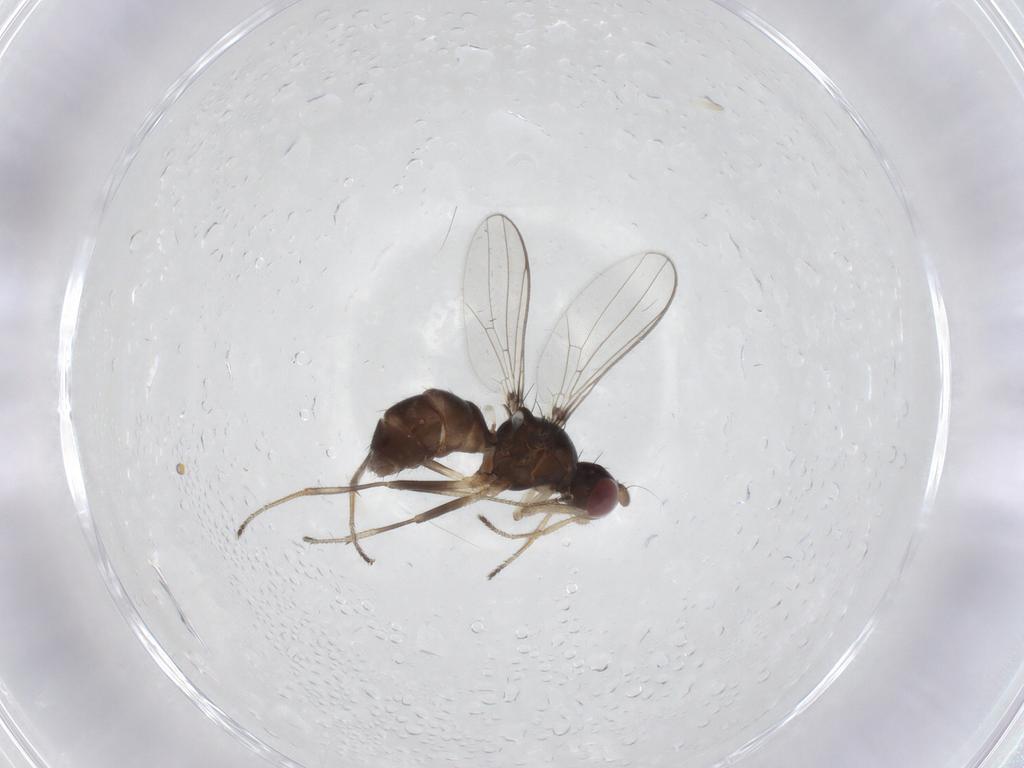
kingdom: Animalia
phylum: Arthropoda
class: Insecta
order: Diptera
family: Sepsidae
